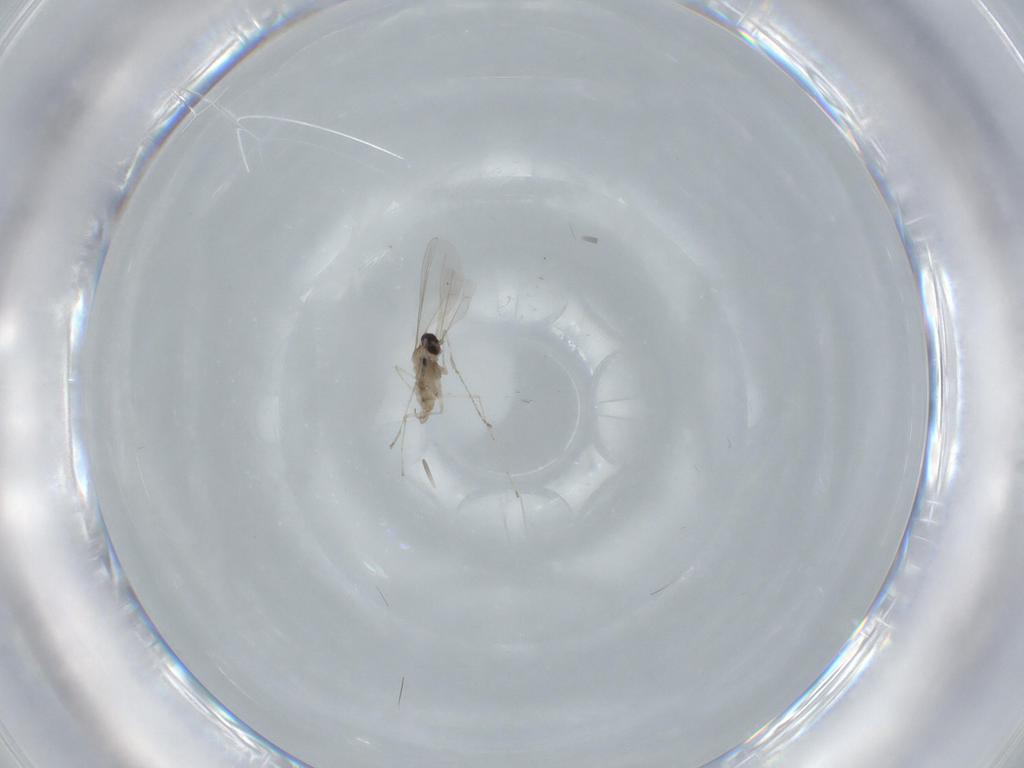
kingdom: Animalia
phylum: Arthropoda
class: Insecta
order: Diptera
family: Cecidomyiidae
